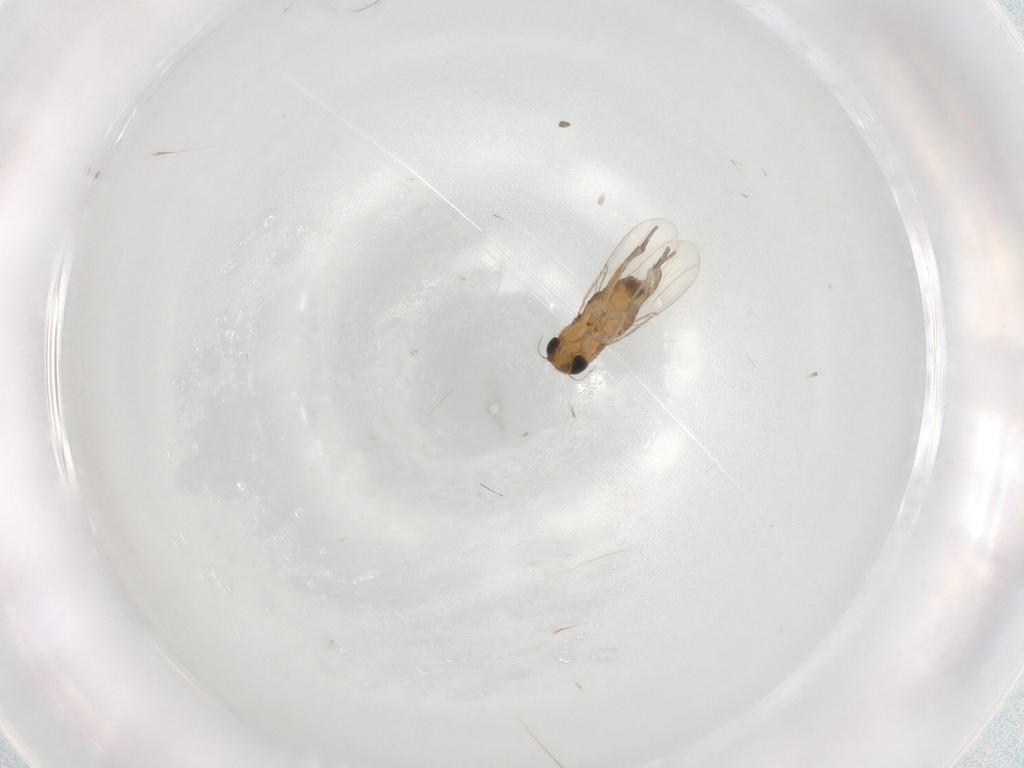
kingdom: Animalia
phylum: Arthropoda
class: Insecta
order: Diptera
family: Phoridae
